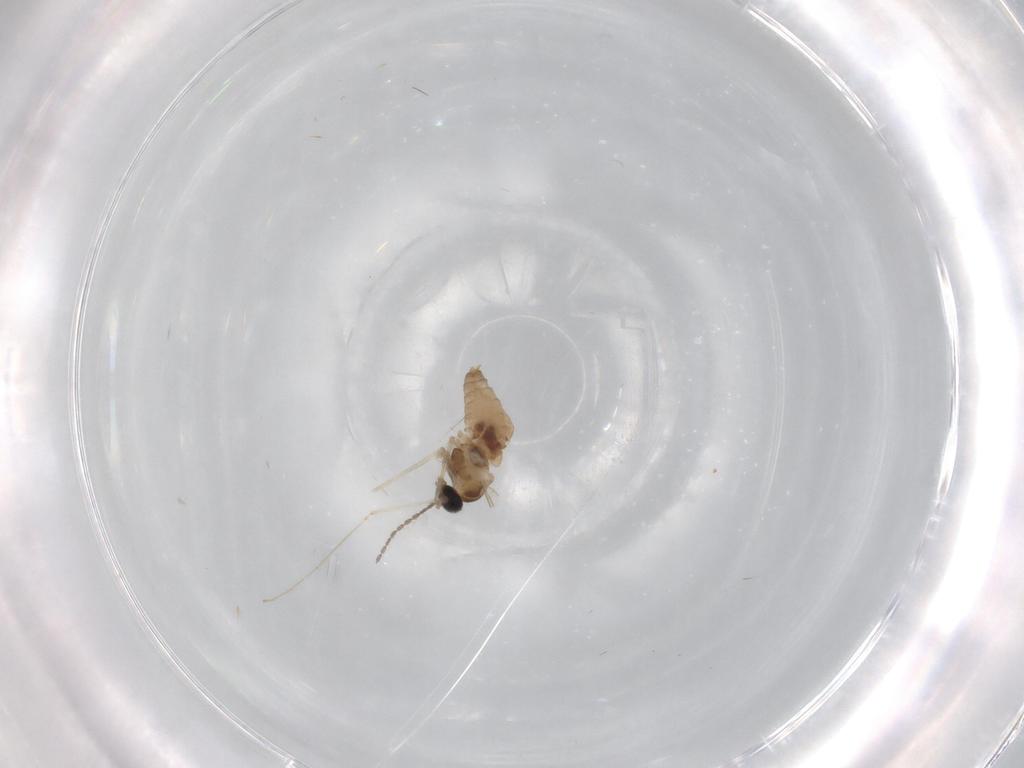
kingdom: Animalia
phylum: Arthropoda
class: Insecta
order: Diptera
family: Cecidomyiidae
